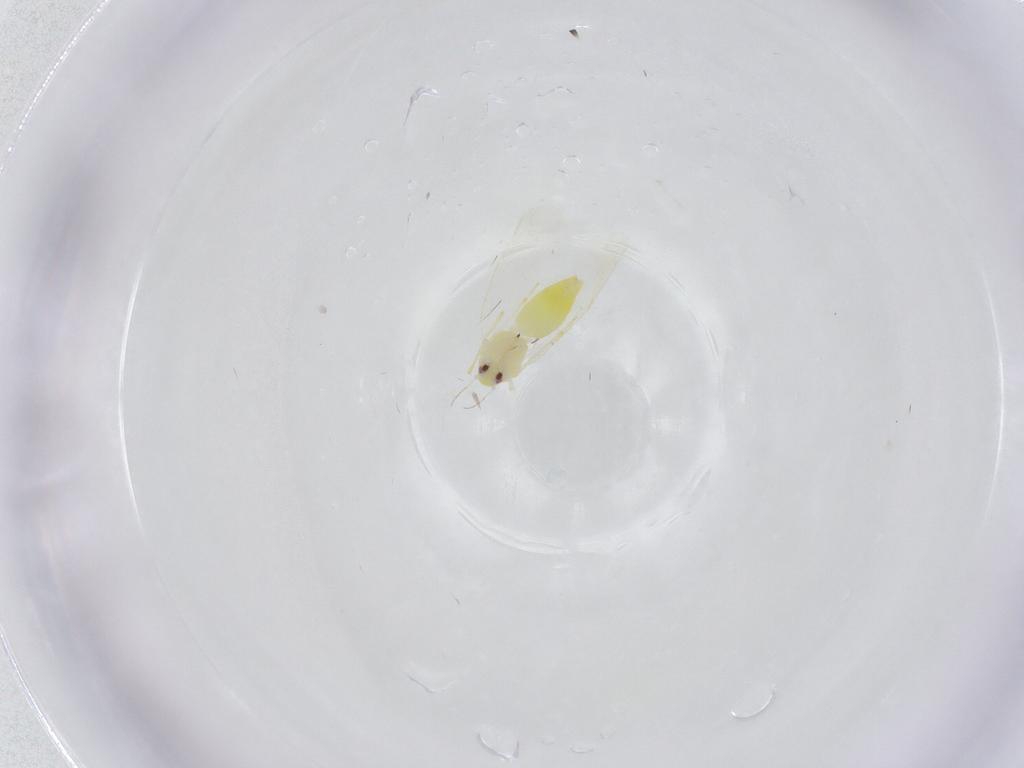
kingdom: Animalia
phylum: Arthropoda
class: Insecta
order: Hemiptera
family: Aleyrodidae
